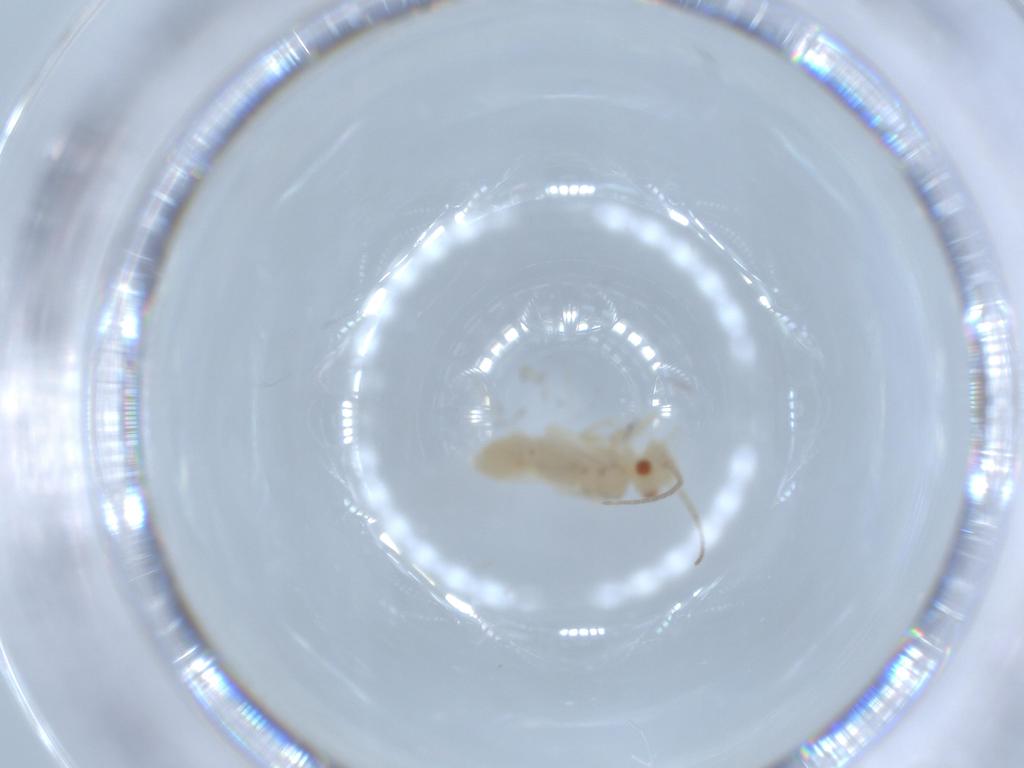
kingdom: Animalia
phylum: Arthropoda
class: Insecta
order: Psocodea
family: Caeciliusidae
